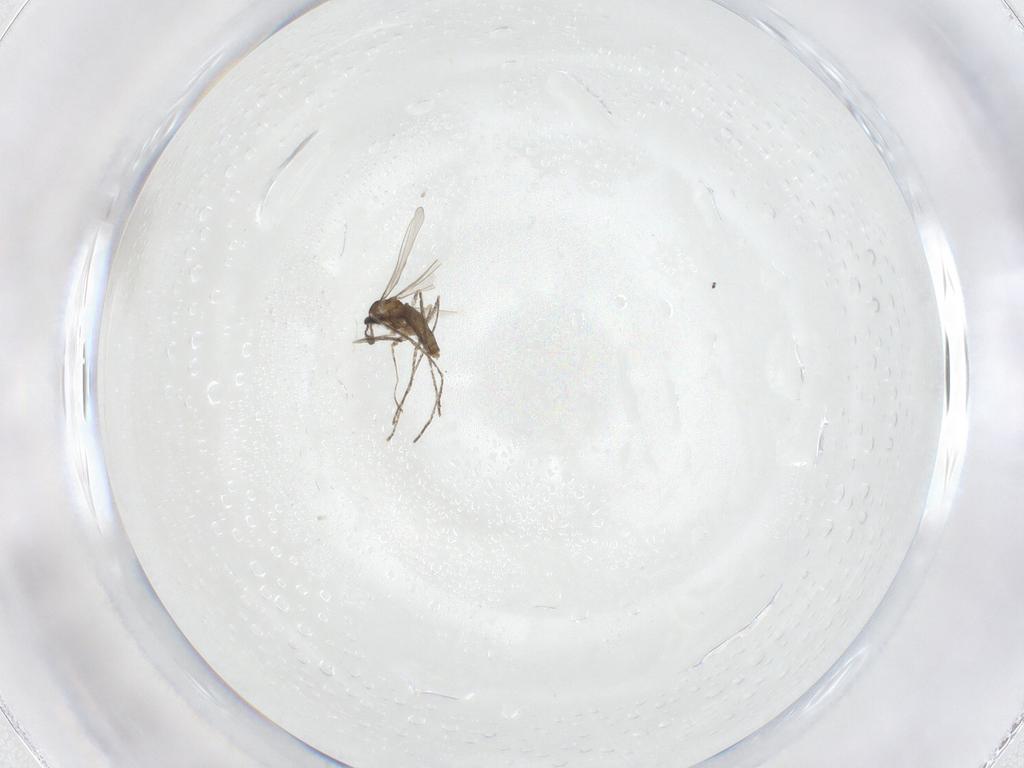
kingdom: Animalia
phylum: Arthropoda
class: Insecta
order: Diptera
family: Cecidomyiidae
